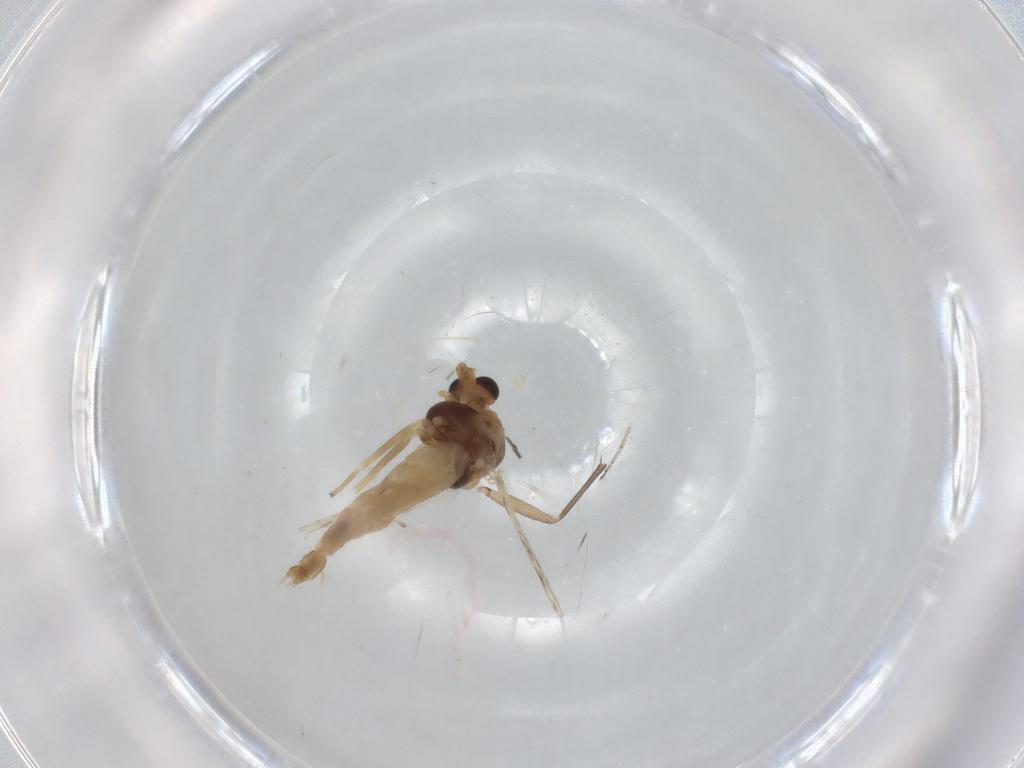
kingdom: Animalia
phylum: Arthropoda
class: Insecta
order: Diptera
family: Chironomidae
